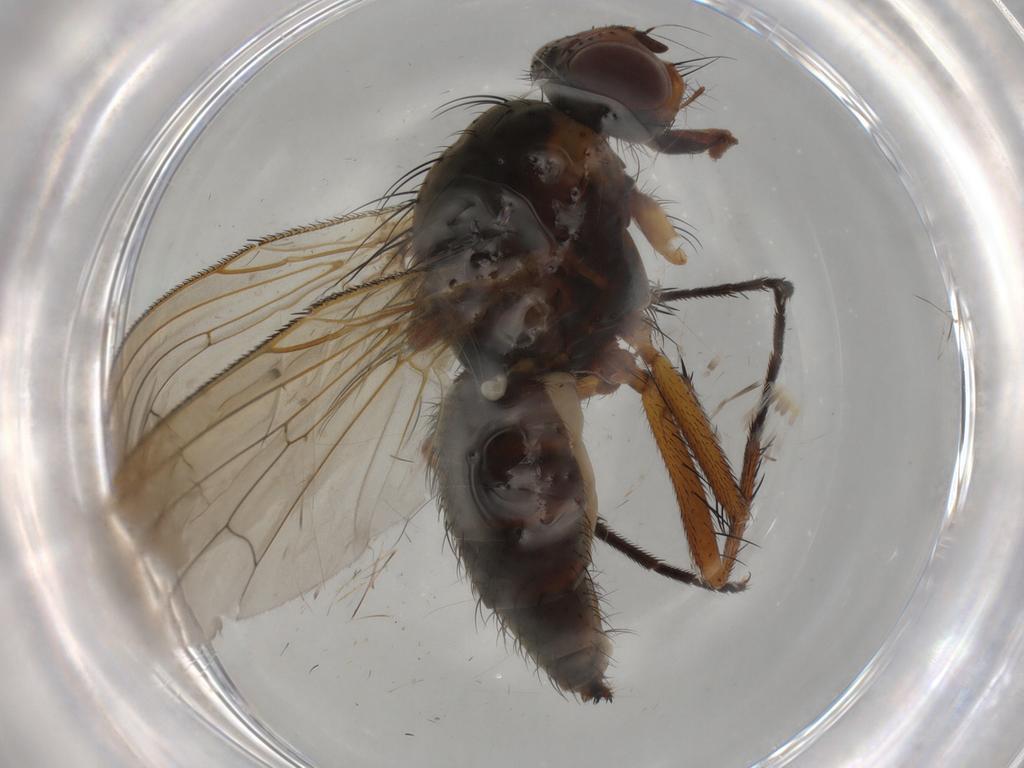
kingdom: Animalia
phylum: Arthropoda
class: Insecta
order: Diptera
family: Anthomyiidae
